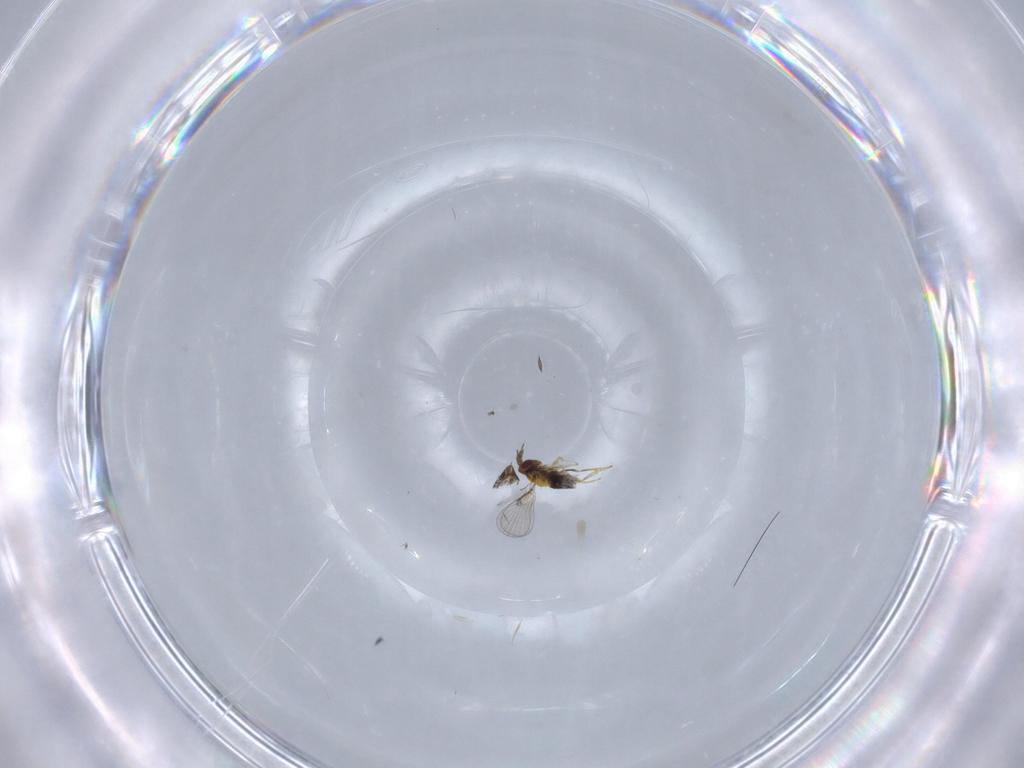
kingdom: Animalia
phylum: Arthropoda
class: Insecta
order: Hymenoptera
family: Trichogrammatidae
